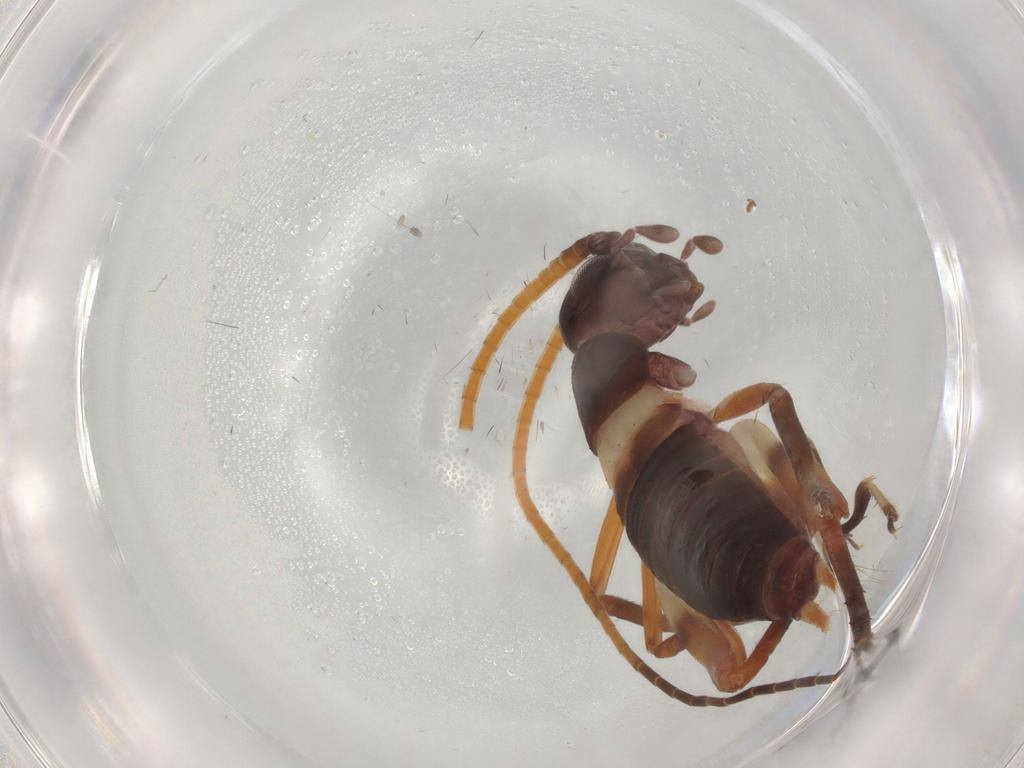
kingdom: Animalia
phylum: Arthropoda
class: Insecta
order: Orthoptera
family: Gryllidae
